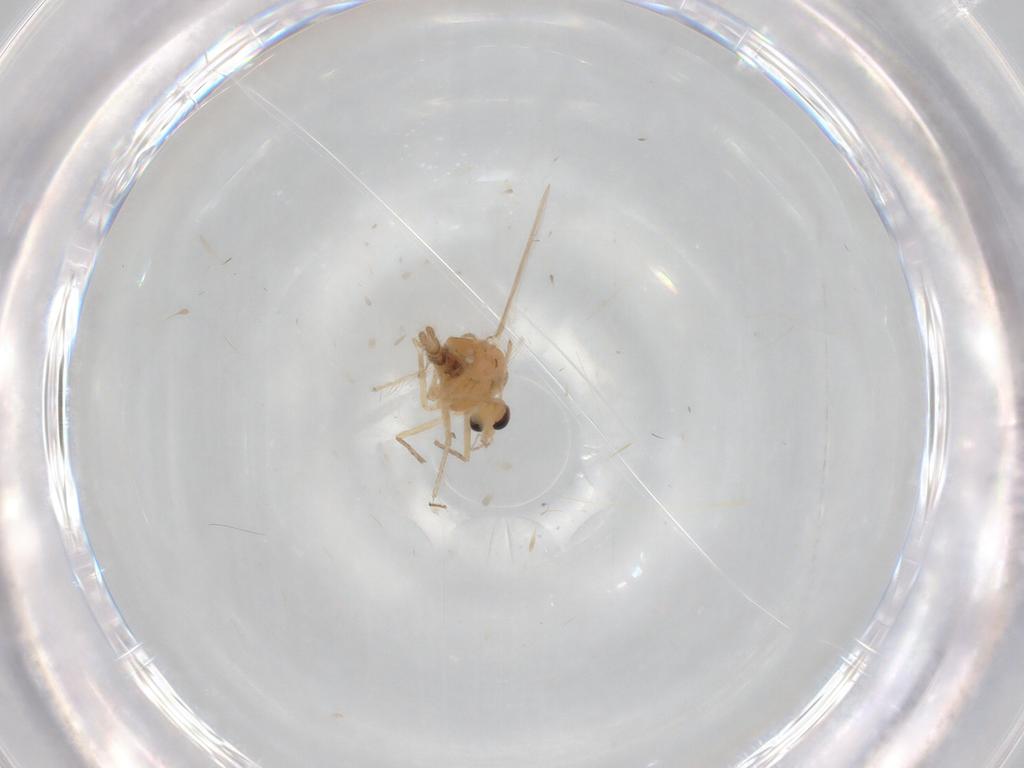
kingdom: Animalia
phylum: Arthropoda
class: Insecta
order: Diptera
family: Chironomidae
